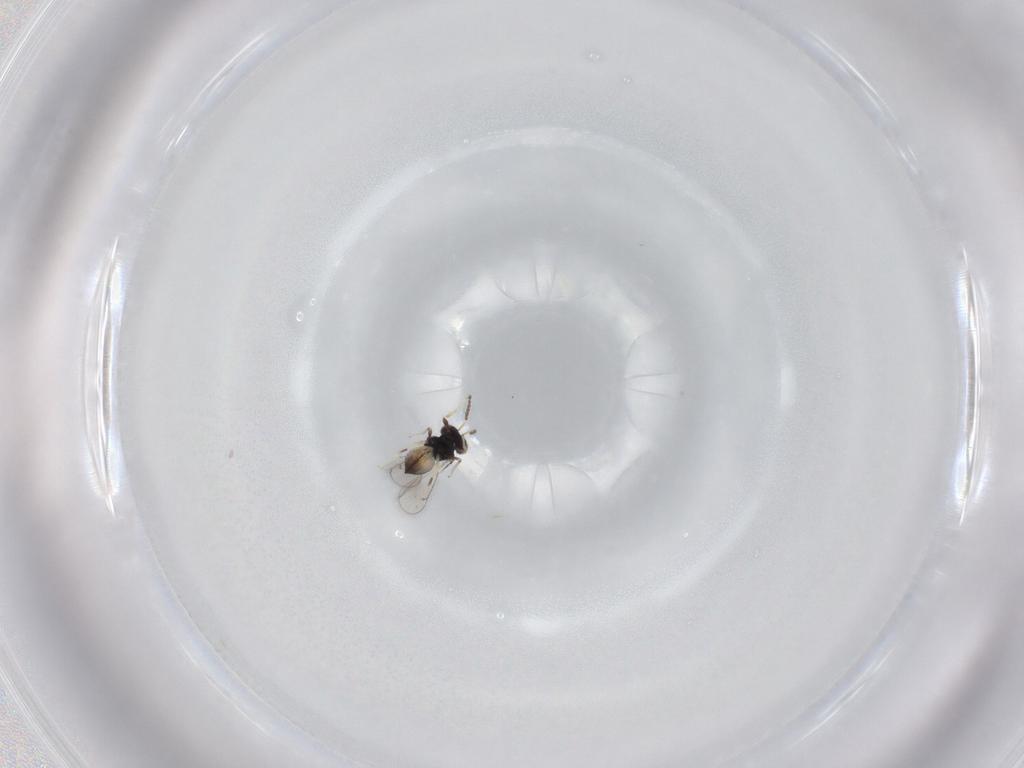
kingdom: Animalia
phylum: Arthropoda
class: Insecta
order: Hymenoptera
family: Eulophidae
